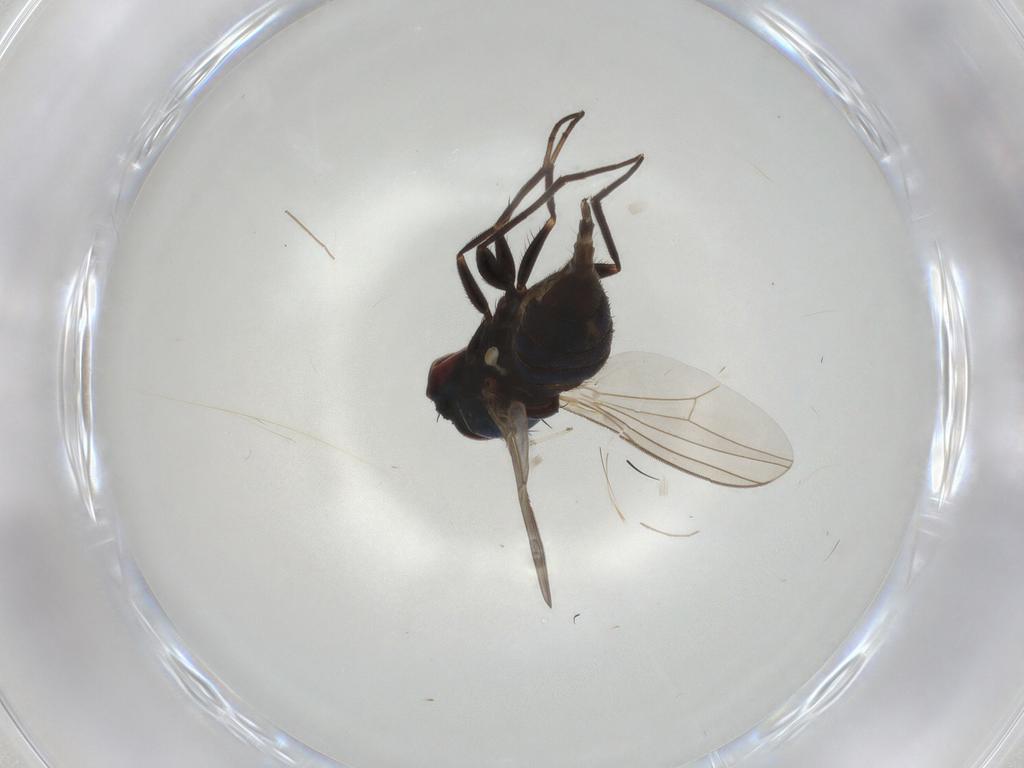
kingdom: Animalia
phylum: Arthropoda
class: Insecta
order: Diptera
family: Dolichopodidae
